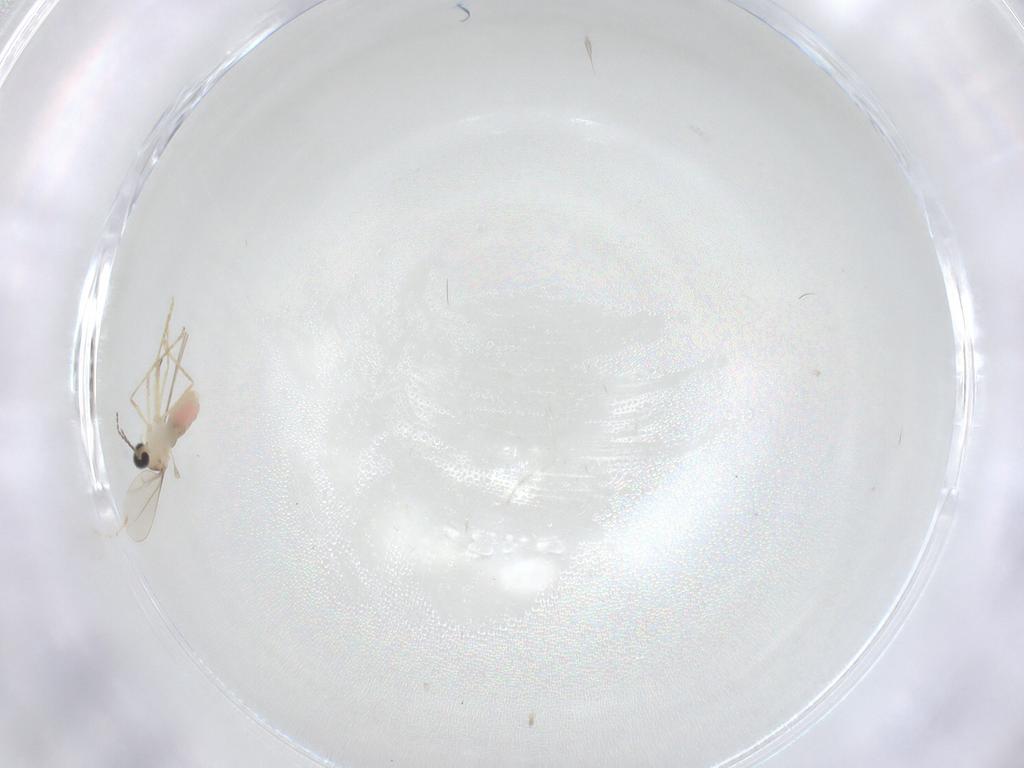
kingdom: Animalia
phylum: Arthropoda
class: Insecta
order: Diptera
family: Cecidomyiidae
